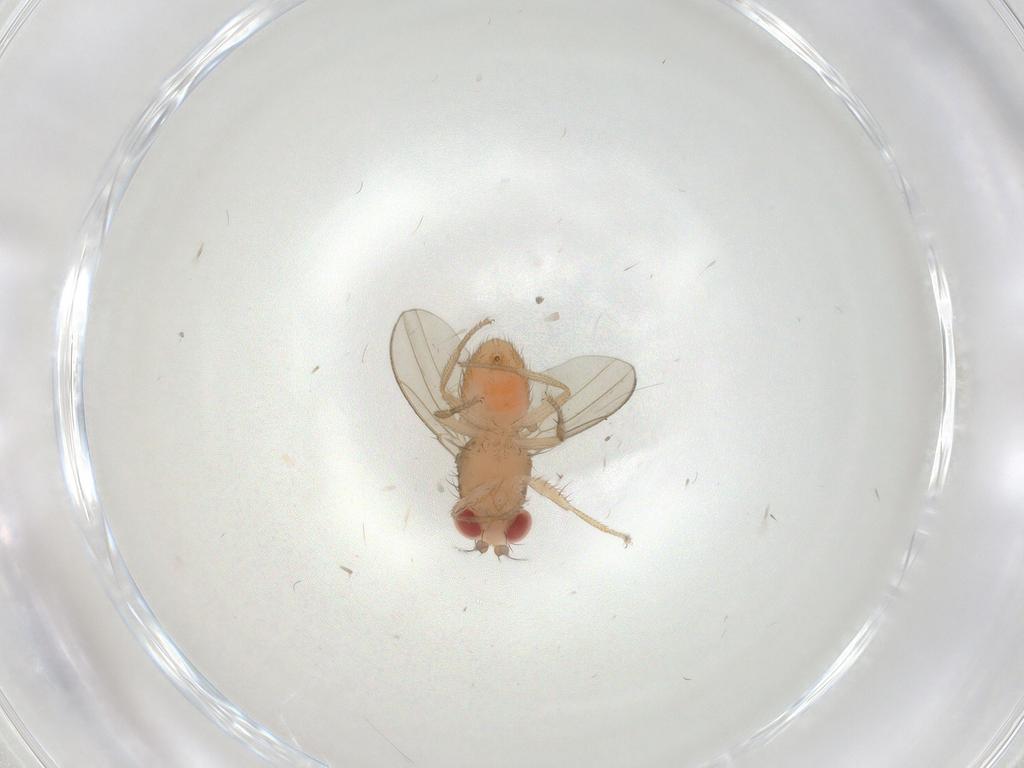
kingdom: Animalia
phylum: Arthropoda
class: Insecta
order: Diptera
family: Drosophilidae
